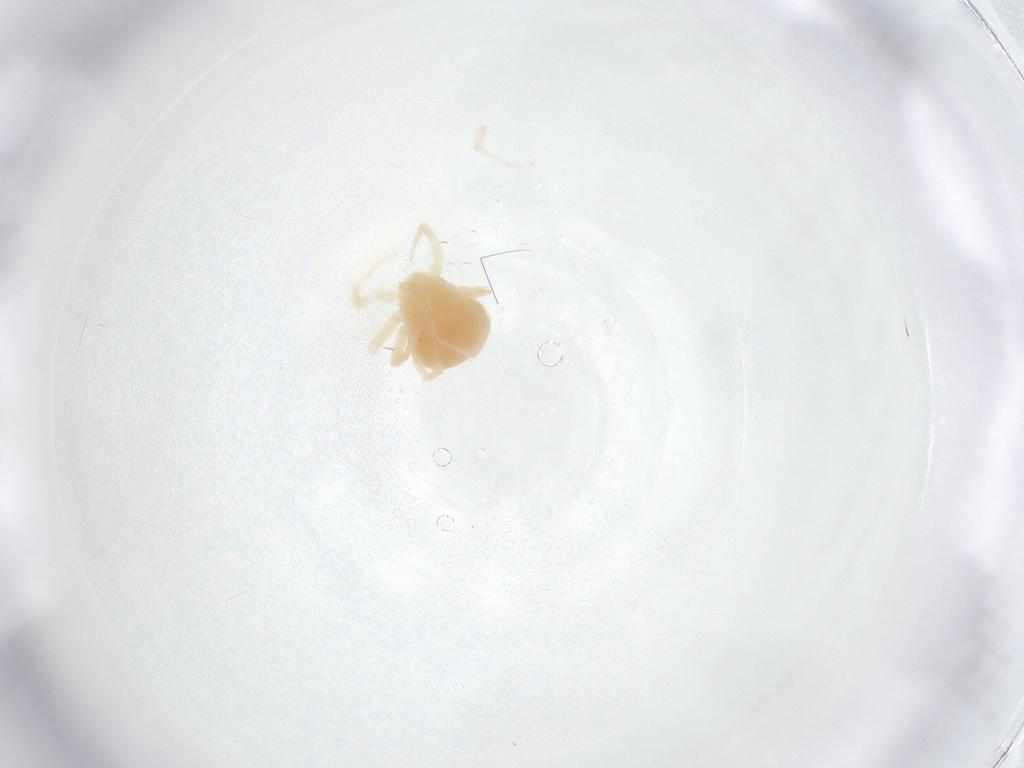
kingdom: Animalia
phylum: Arthropoda
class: Arachnida
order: Trombidiformes
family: Anystidae
